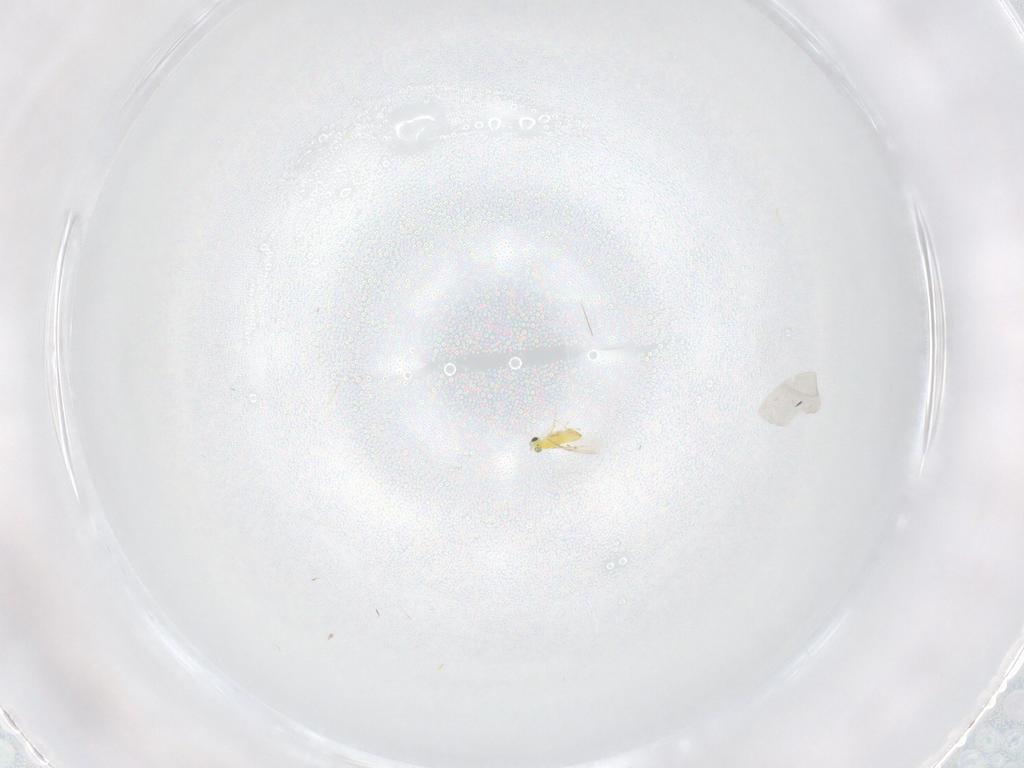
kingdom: Animalia
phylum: Arthropoda
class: Insecta
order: Hymenoptera
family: Trichogrammatidae
